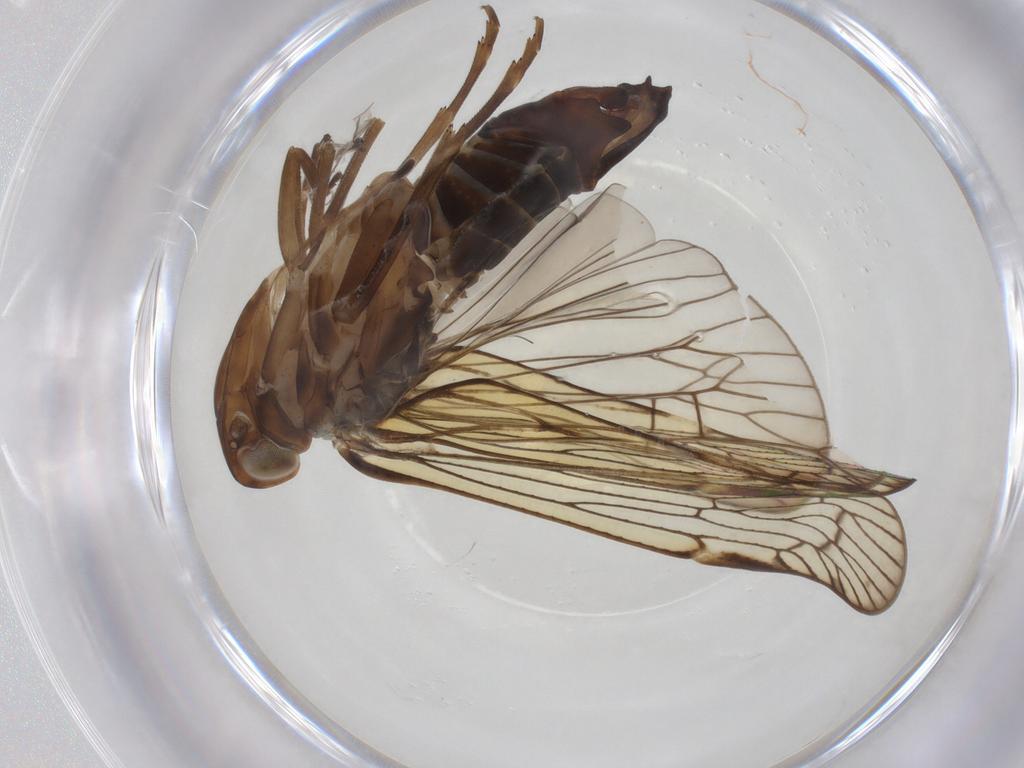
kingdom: Animalia
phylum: Arthropoda
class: Insecta
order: Hemiptera
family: Cixiidae
